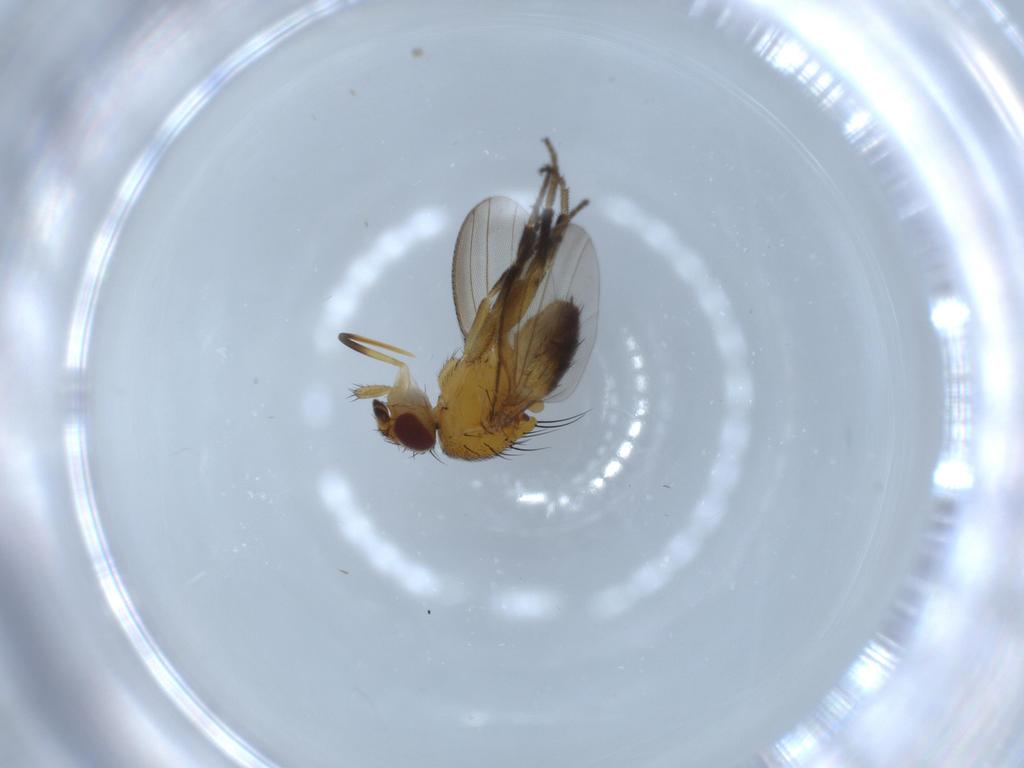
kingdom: Animalia
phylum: Arthropoda
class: Insecta
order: Diptera
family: Milichiidae
